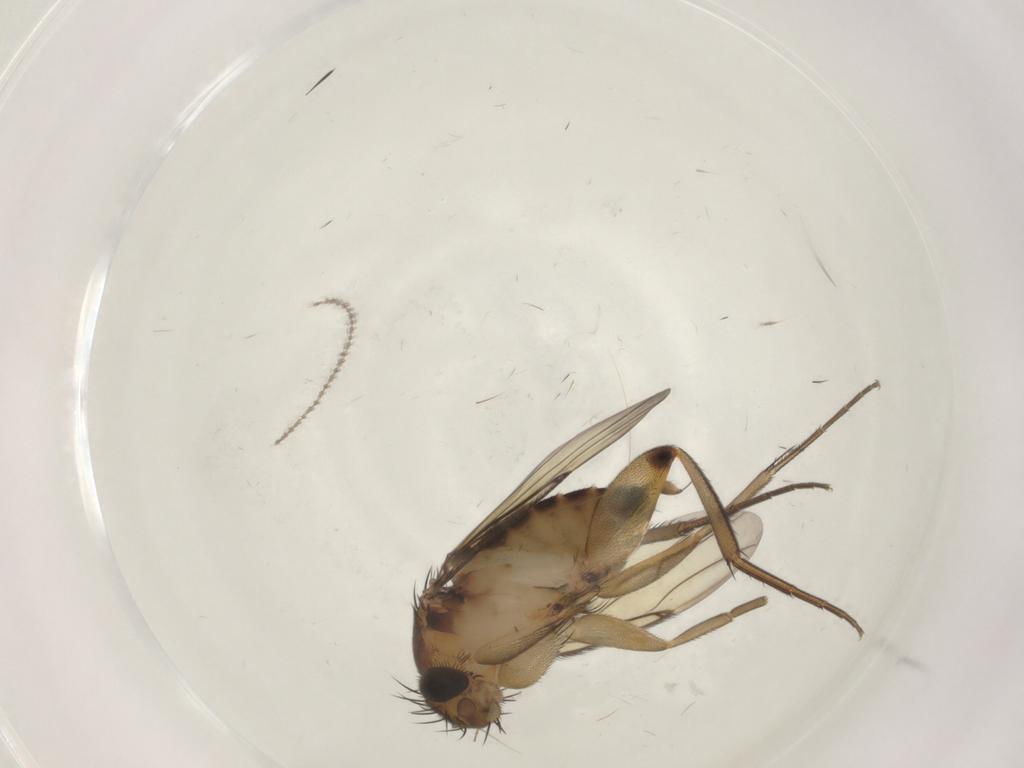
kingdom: Animalia
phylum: Arthropoda
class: Insecta
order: Diptera
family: Phoridae
